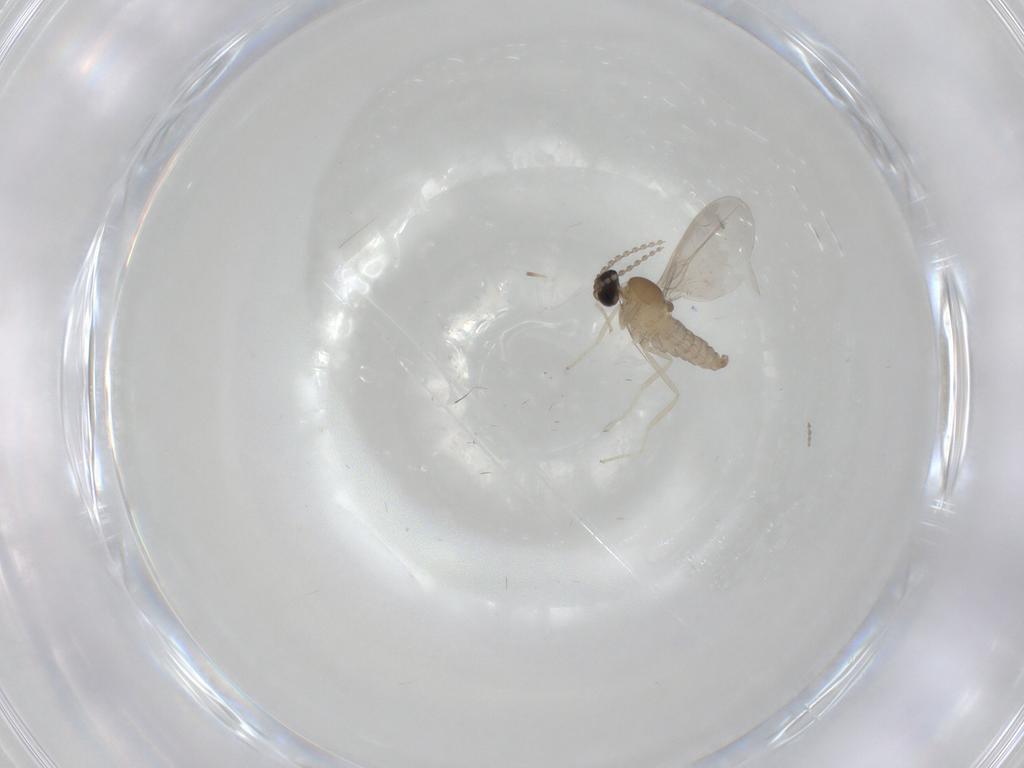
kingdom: Animalia
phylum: Arthropoda
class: Insecta
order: Diptera
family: Cecidomyiidae
